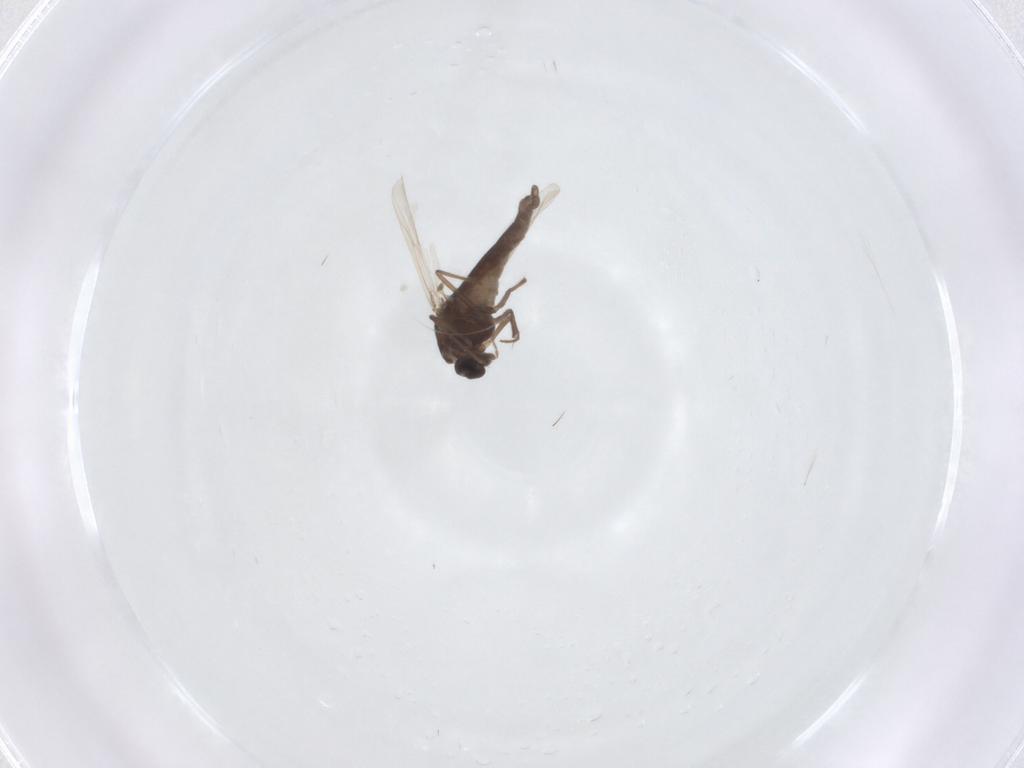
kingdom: Animalia
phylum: Arthropoda
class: Insecta
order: Diptera
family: Chironomidae
